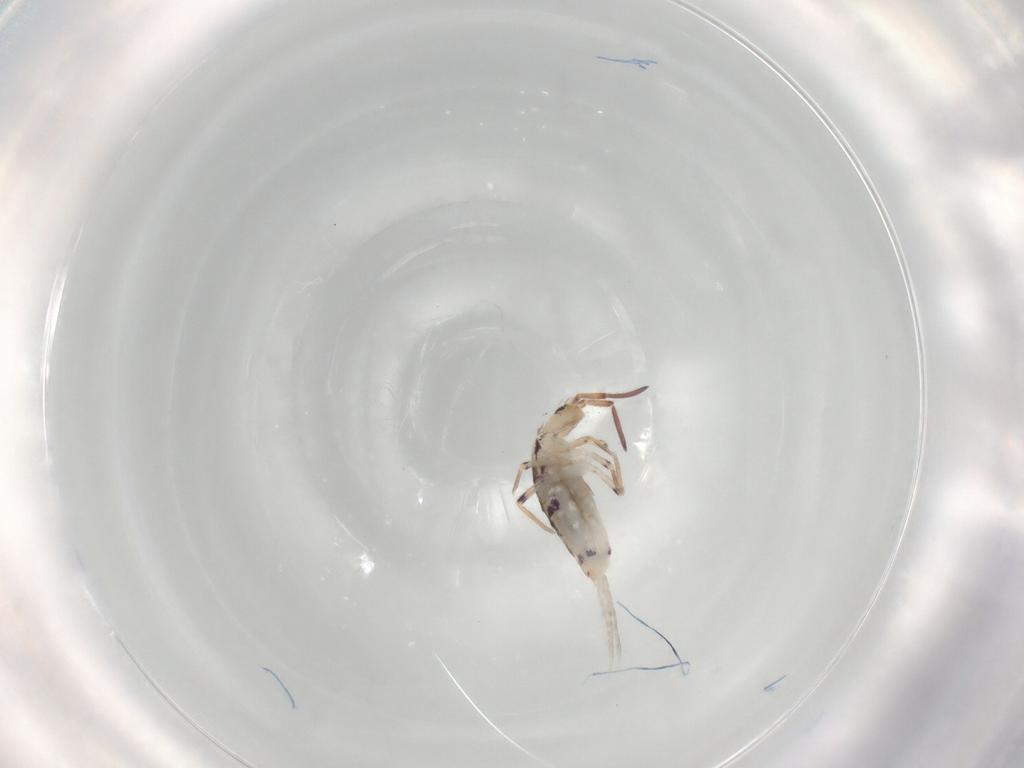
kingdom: Animalia
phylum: Arthropoda
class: Collembola
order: Entomobryomorpha
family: Entomobryidae
